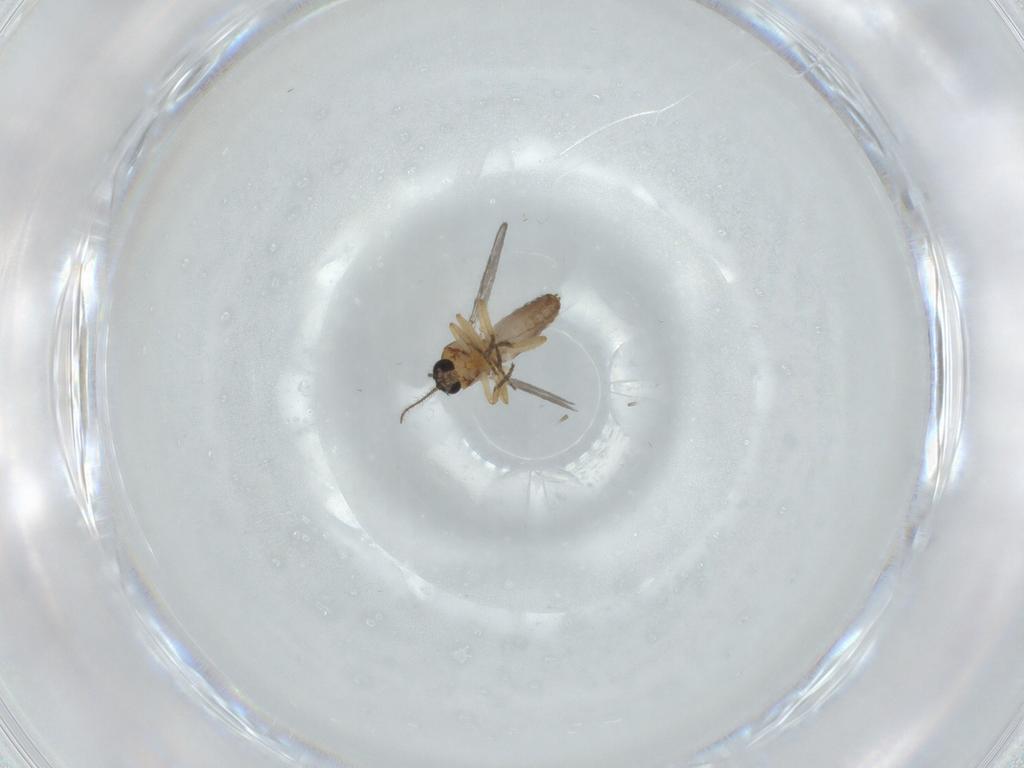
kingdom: Animalia
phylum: Arthropoda
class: Insecta
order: Diptera
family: Ceratopogonidae
